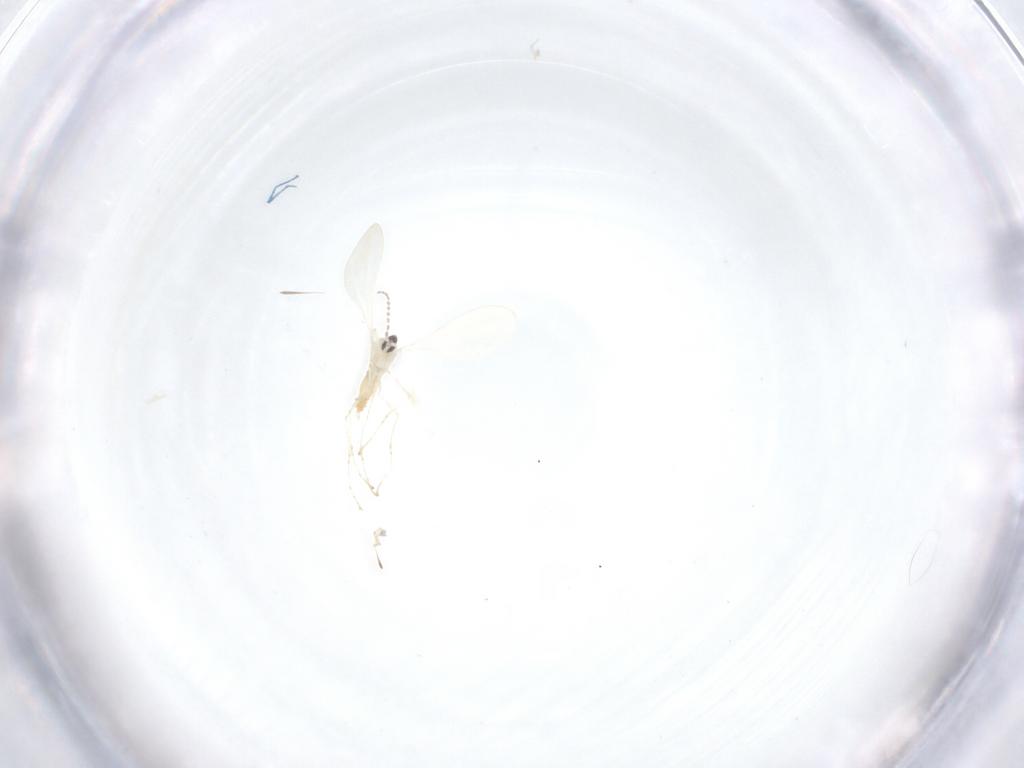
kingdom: Animalia
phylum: Arthropoda
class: Insecta
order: Diptera
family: Cecidomyiidae
